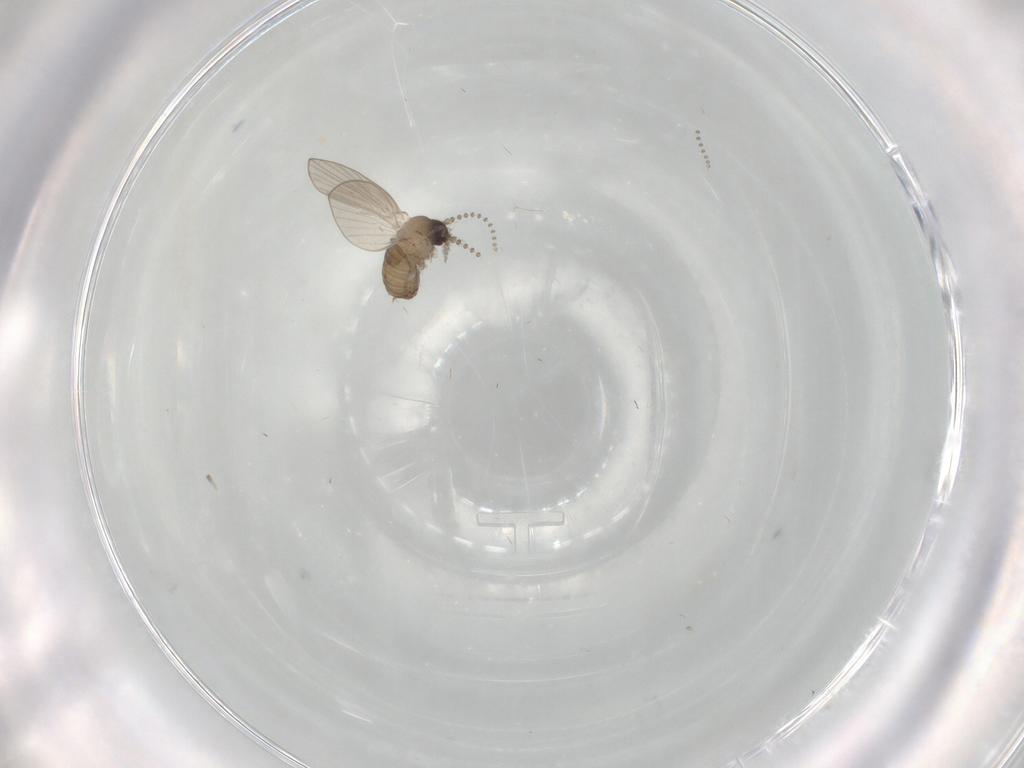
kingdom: Animalia
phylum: Arthropoda
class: Insecta
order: Diptera
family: Psychodidae
